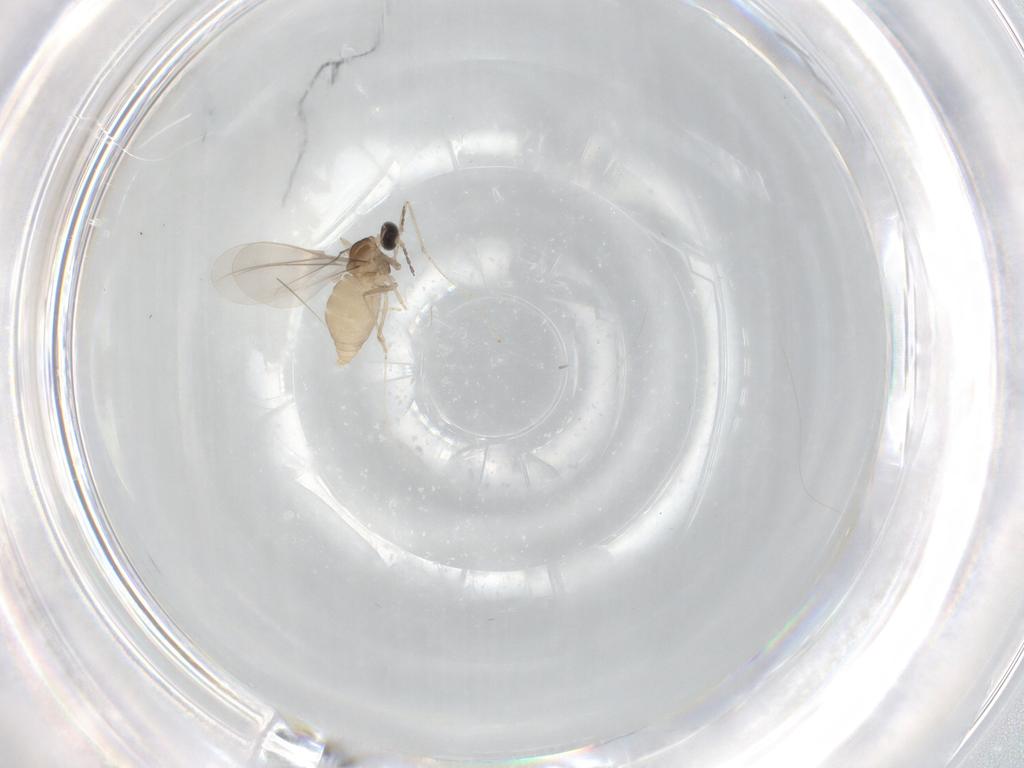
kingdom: Animalia
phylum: Arthropoda
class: Insecta
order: Diptera
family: Cecidomyiidae
